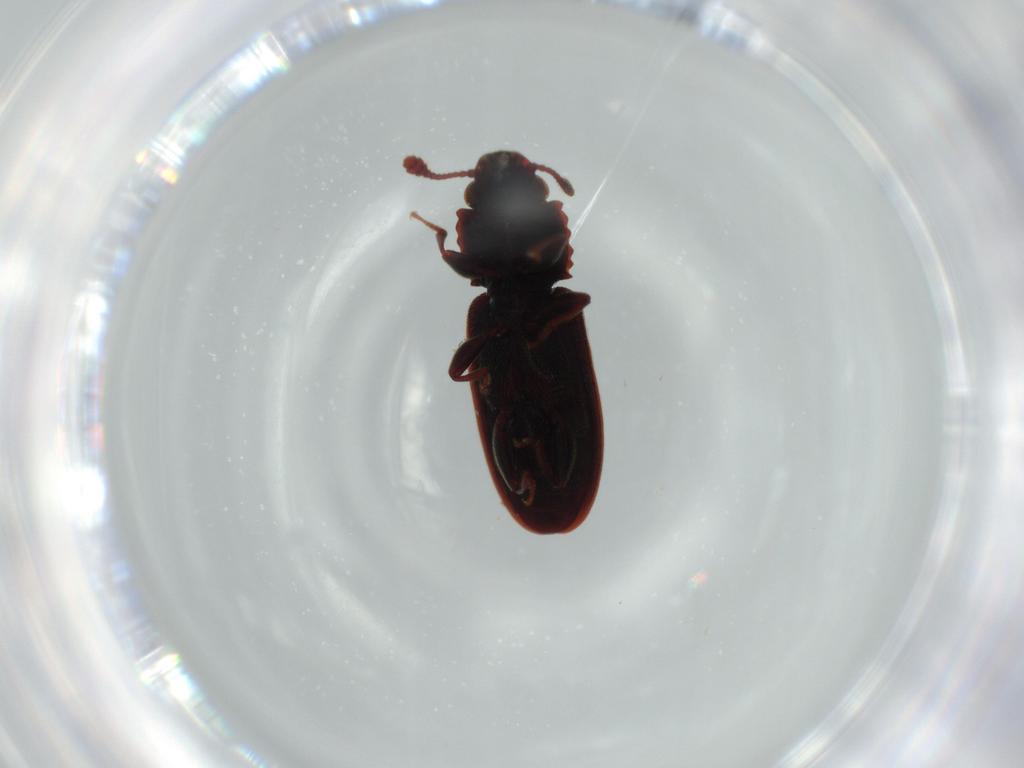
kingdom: Animalia
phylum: Arthropoda
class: Insecta
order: Coleoptera
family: Silvanidae
